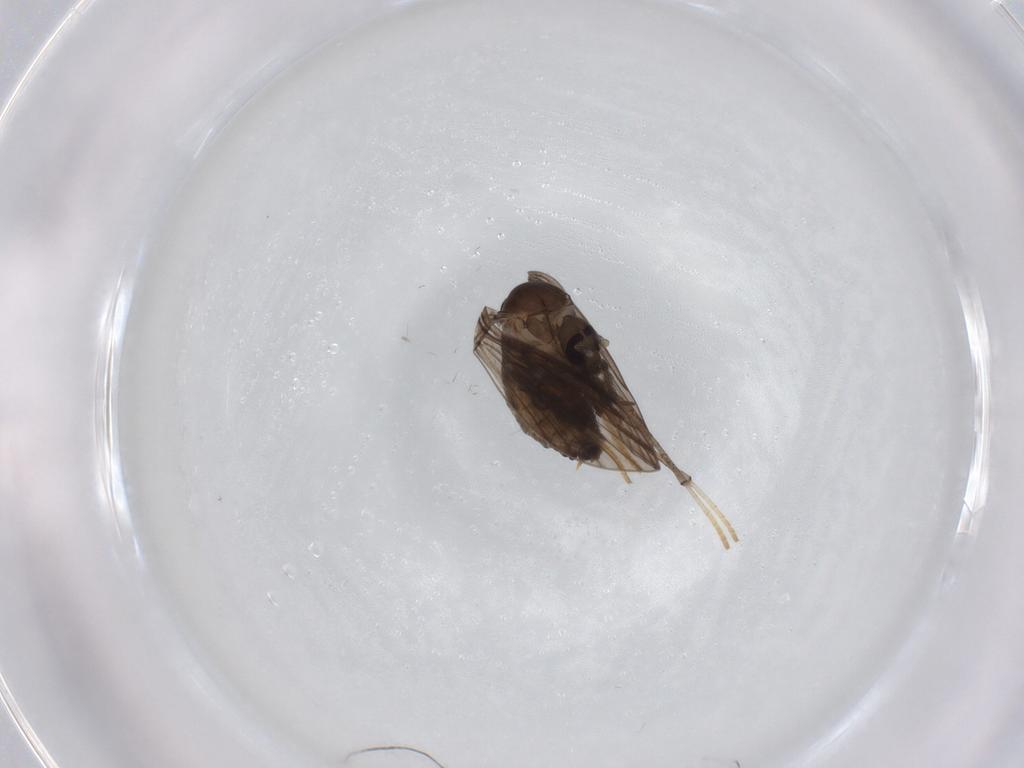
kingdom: Animalia
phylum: Arthropoda
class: Insecta
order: Diptera
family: Psychodidae
